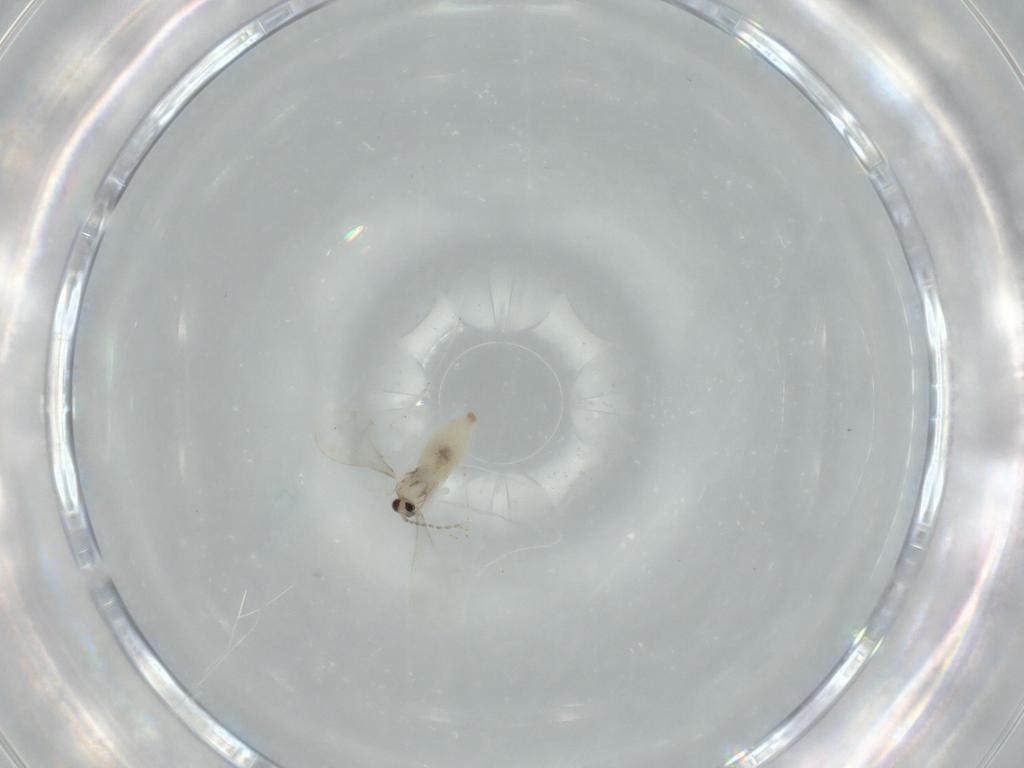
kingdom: Animalia
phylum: Arthropoda
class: Insecta
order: Diptera
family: Cecidomyiidae
